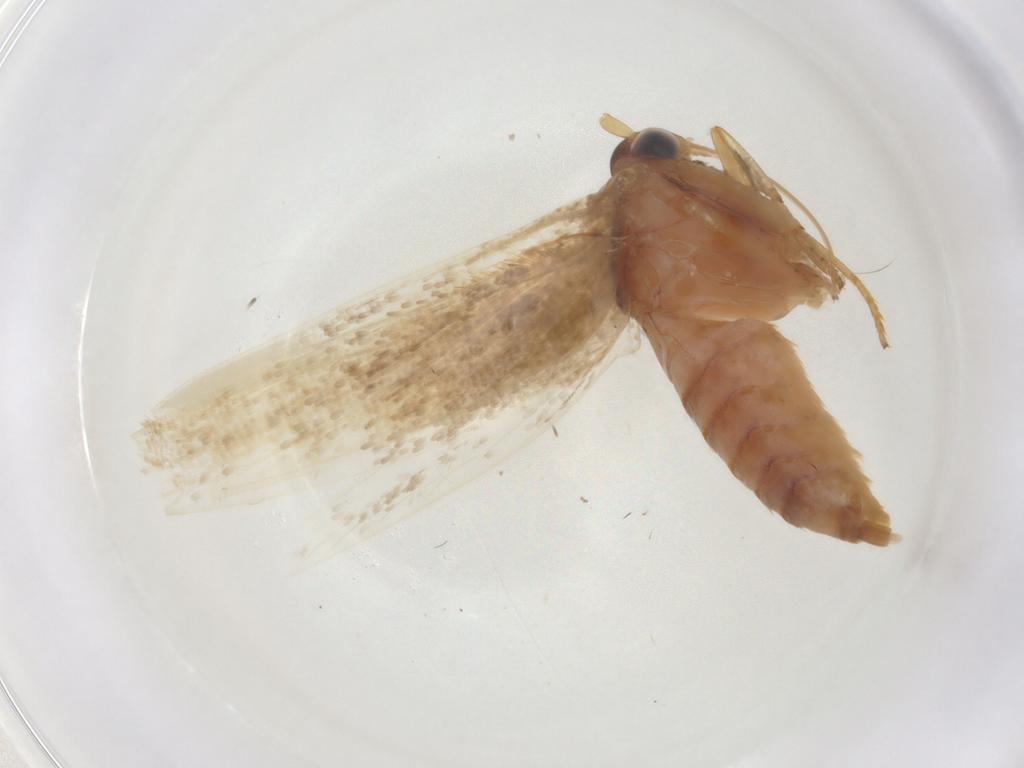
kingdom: Animalia
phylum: Arthropoda
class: Insecta
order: Lepidoptera
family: Blastobasidae
